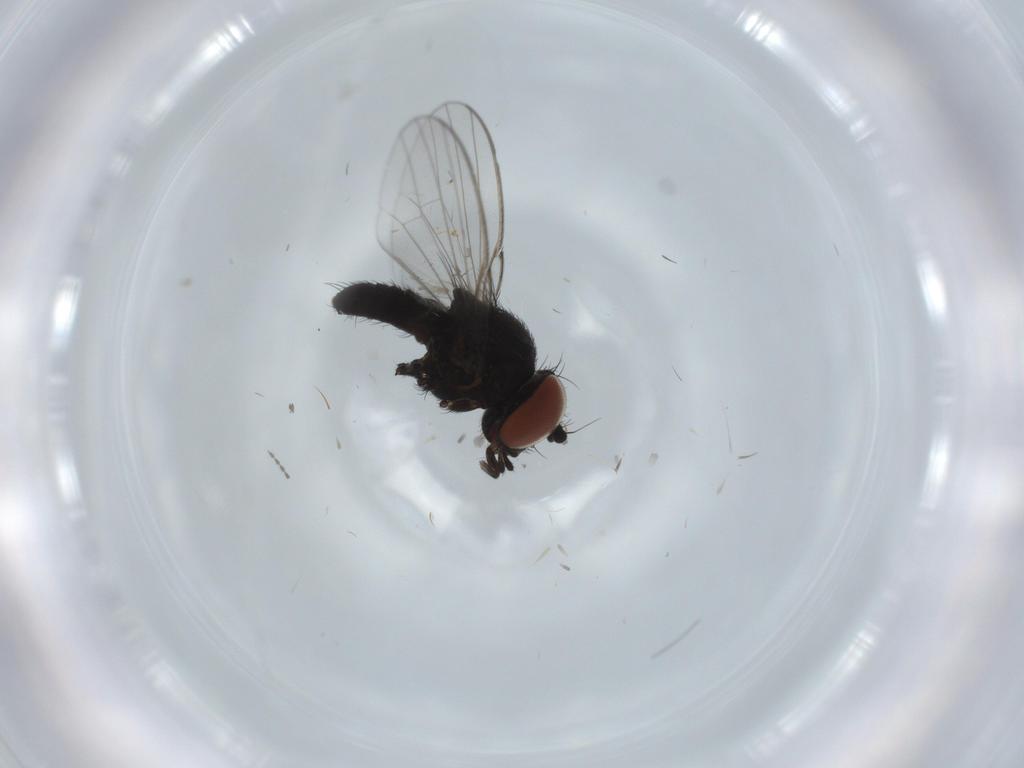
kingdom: Animalia
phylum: Arthropoda
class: Insecta
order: Diptera
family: Milichiidae
